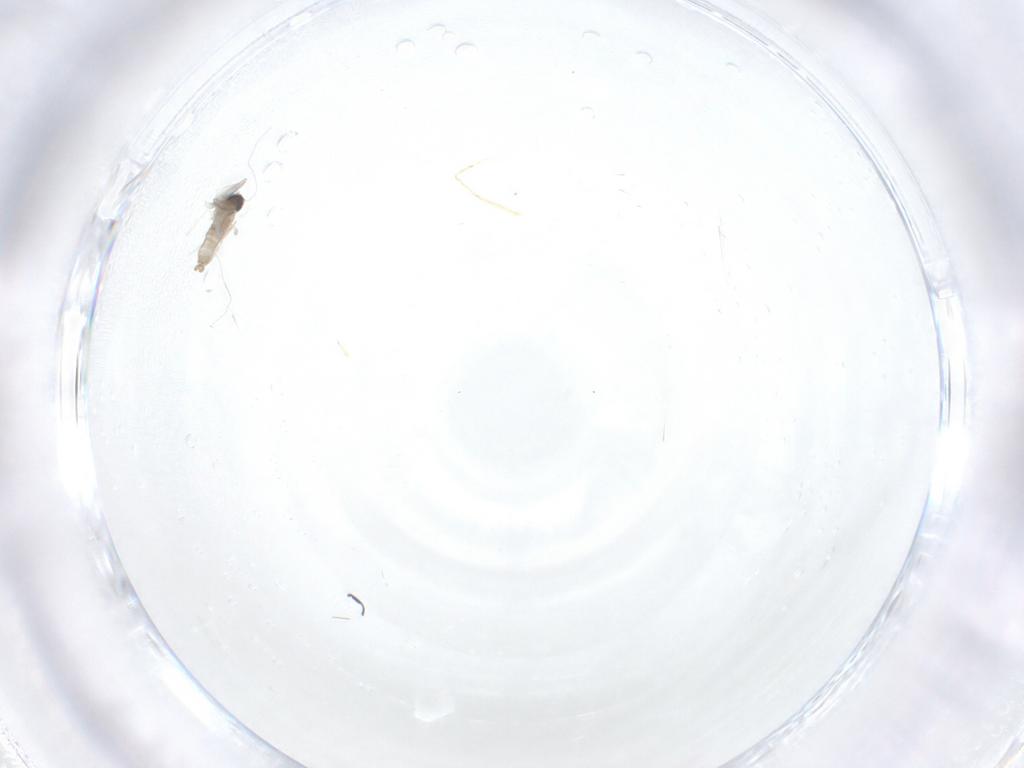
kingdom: Animalia
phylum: Arthropoda
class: Insecta
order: Diptera
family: Cecidomyiidae
